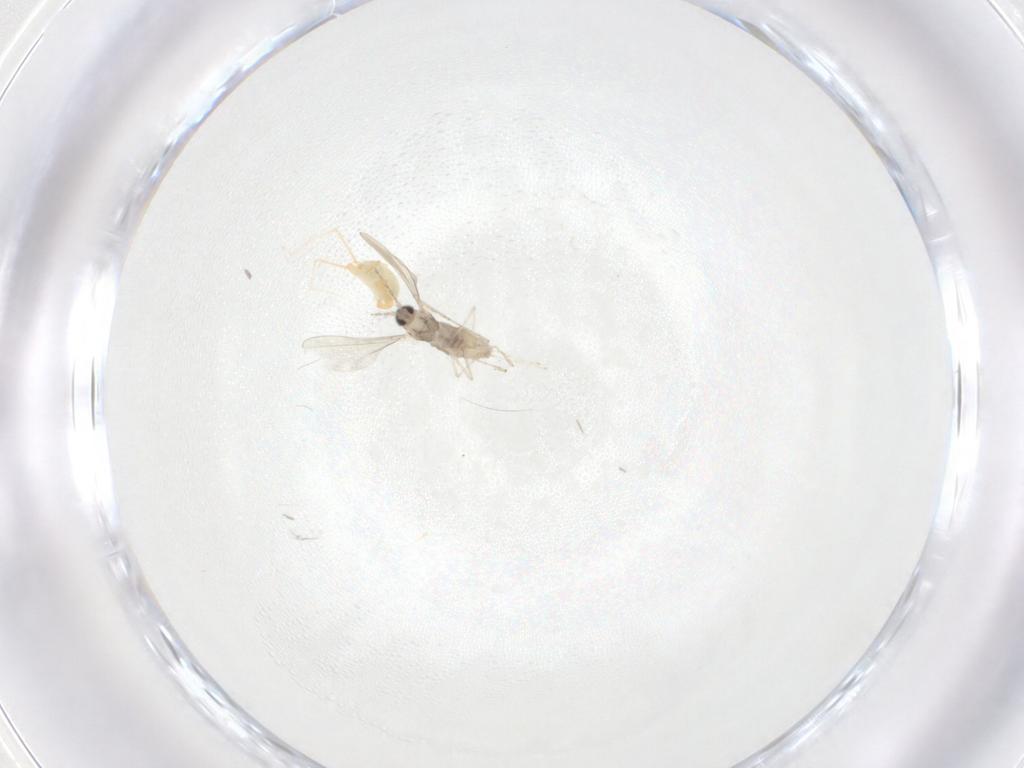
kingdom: Animalia
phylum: Arthropoda
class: Insecta
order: Diptera
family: Cecidomyiidae
